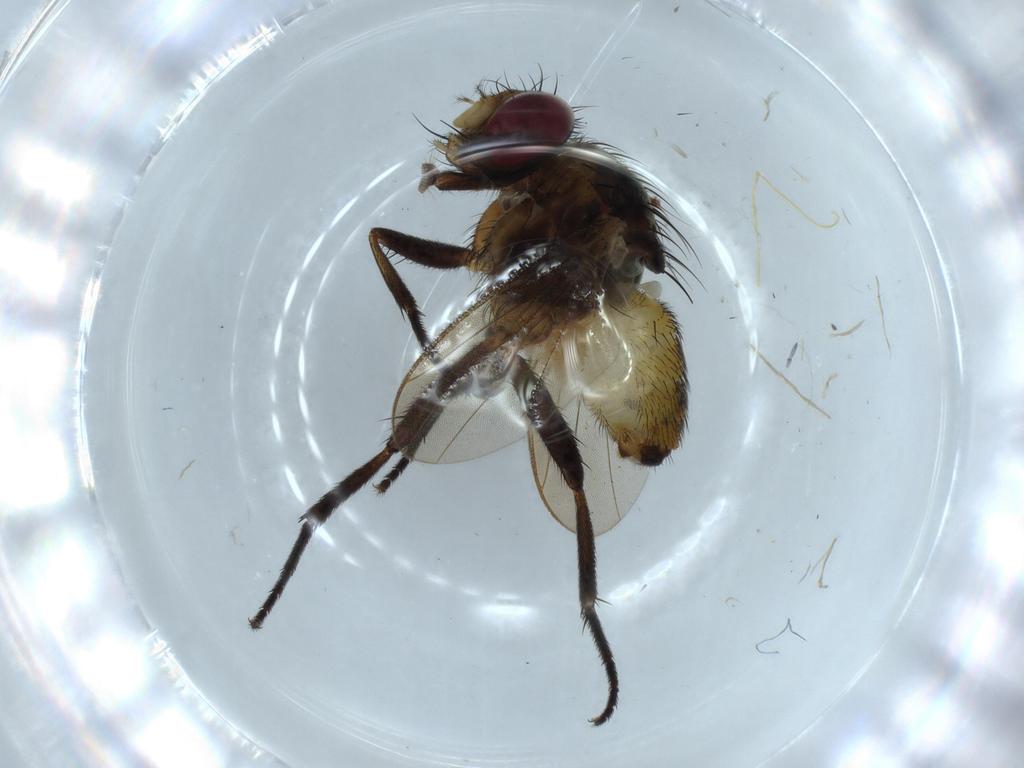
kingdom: Animalia
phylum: Arthropoda
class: Insecta
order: Diptera
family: Anthomyiidae
